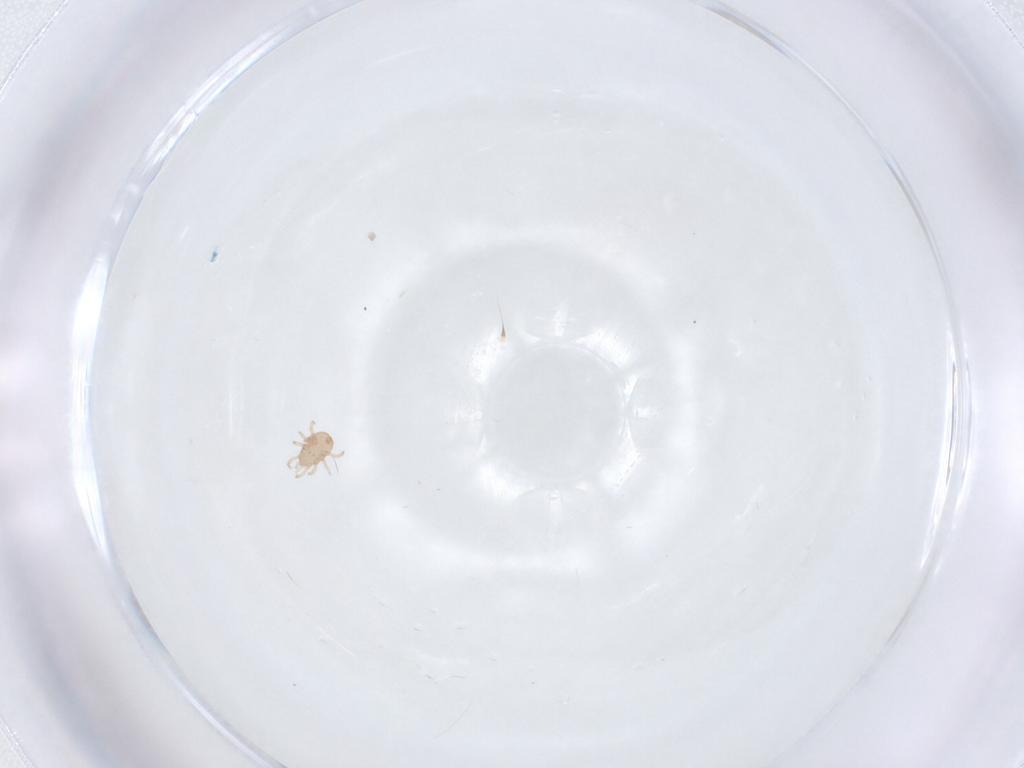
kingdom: Animalia
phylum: Arthropoda
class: Arachnida
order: Mesostigmata
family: Ascidae
